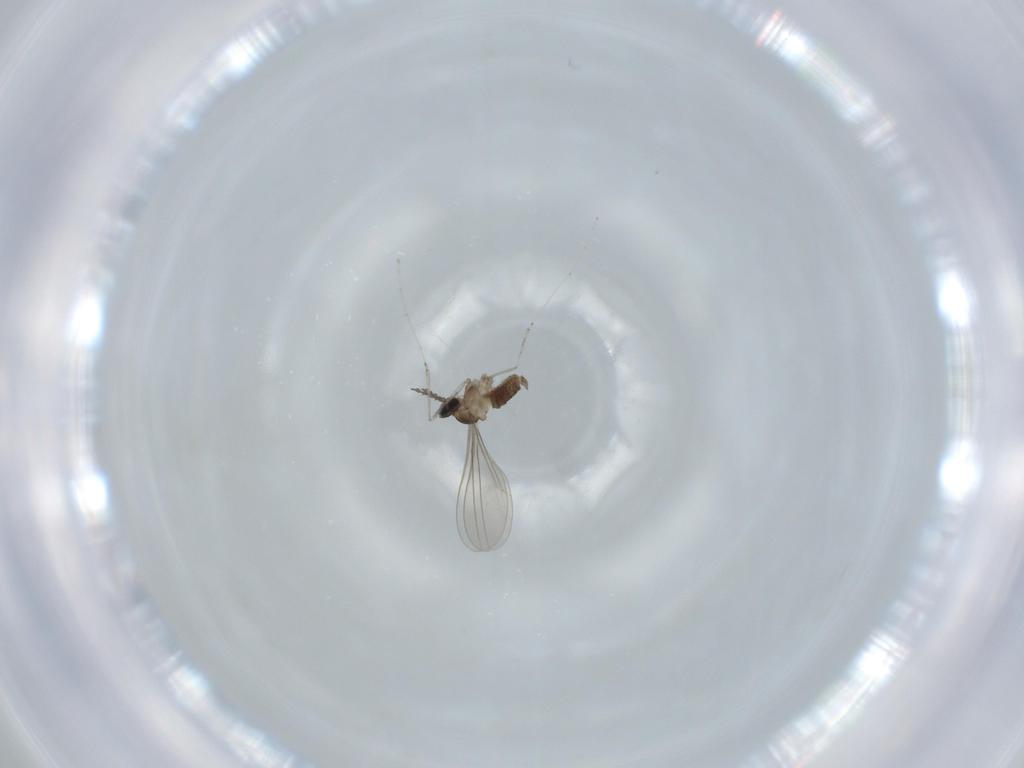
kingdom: Animalia
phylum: Arthropoda
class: Insecta
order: Diptera
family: Cecidomyiidae
